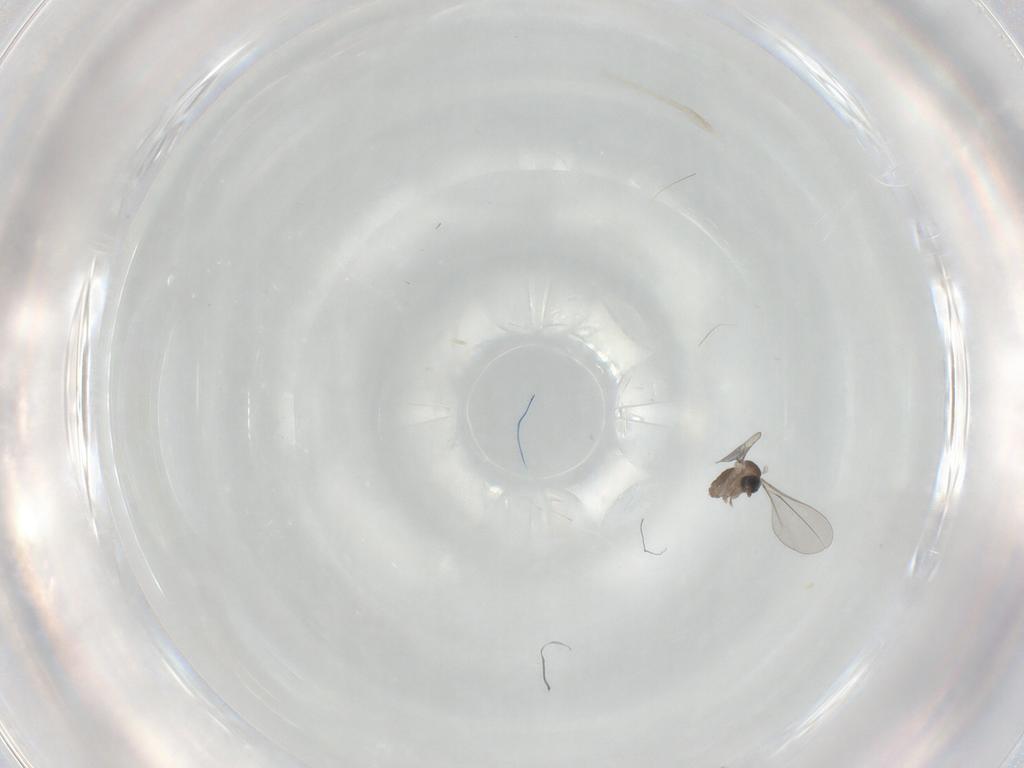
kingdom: Animalia
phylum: Arthropoda
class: Insecta
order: Diptera
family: Cecidomyiidae
